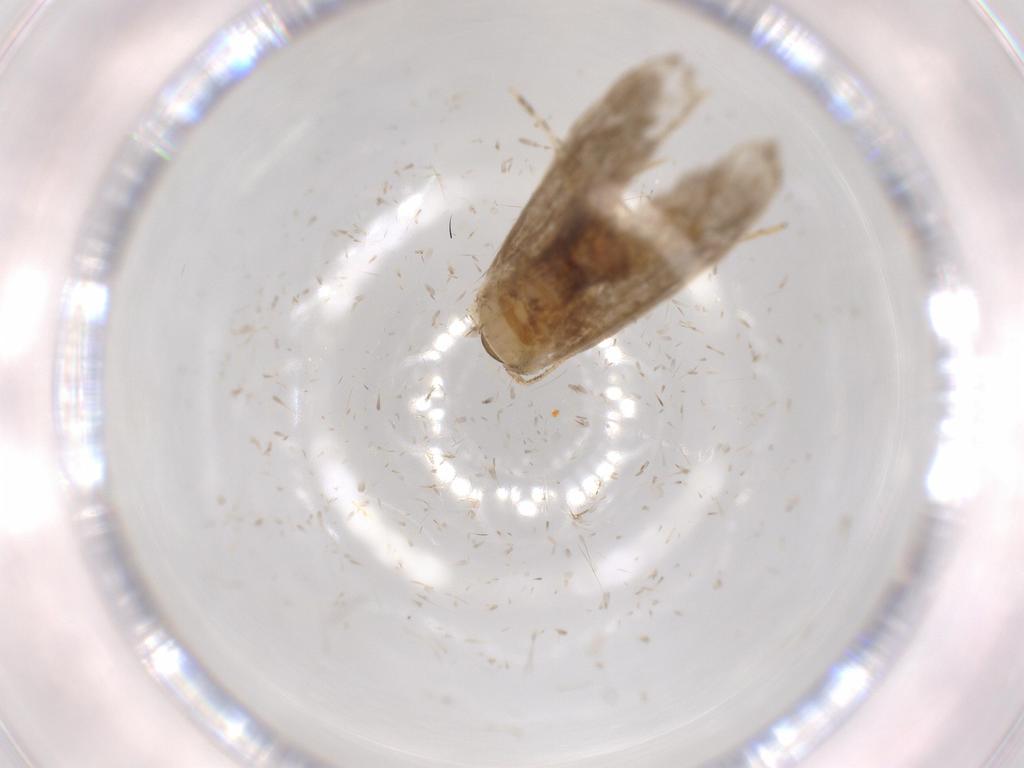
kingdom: Animalia
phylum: Arthropoda
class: Insecta
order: Lepidoptera
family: Tineidae
